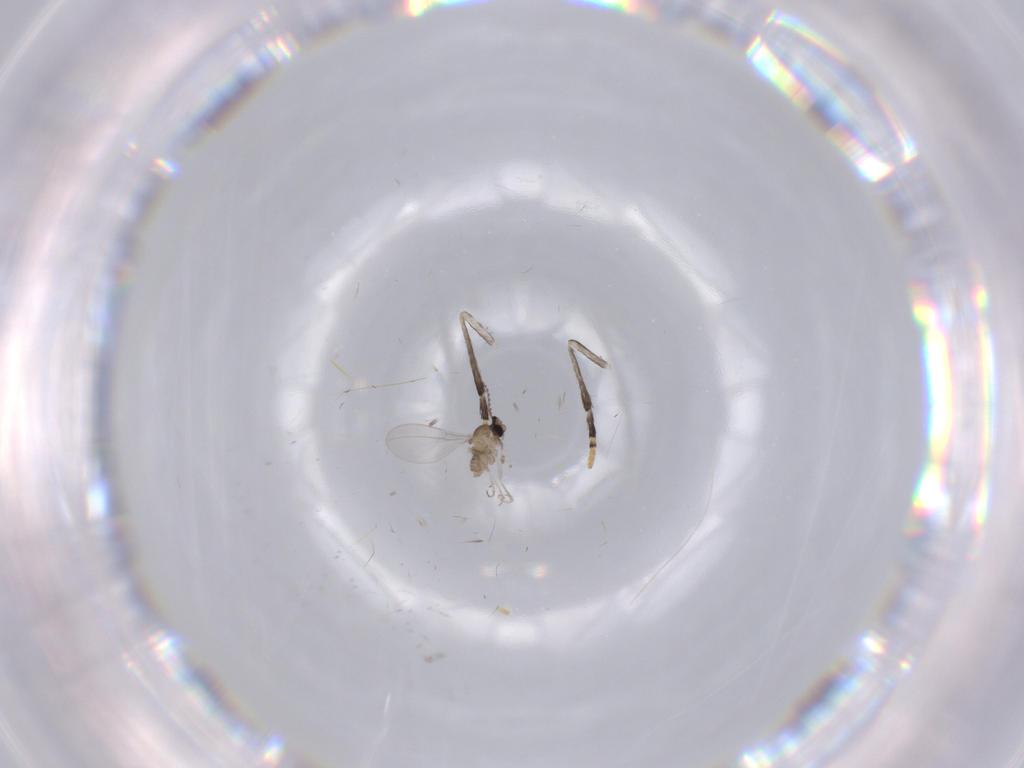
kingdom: Animalia
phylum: Arthropoda
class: Insecta
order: Diptera
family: Psychodidae
